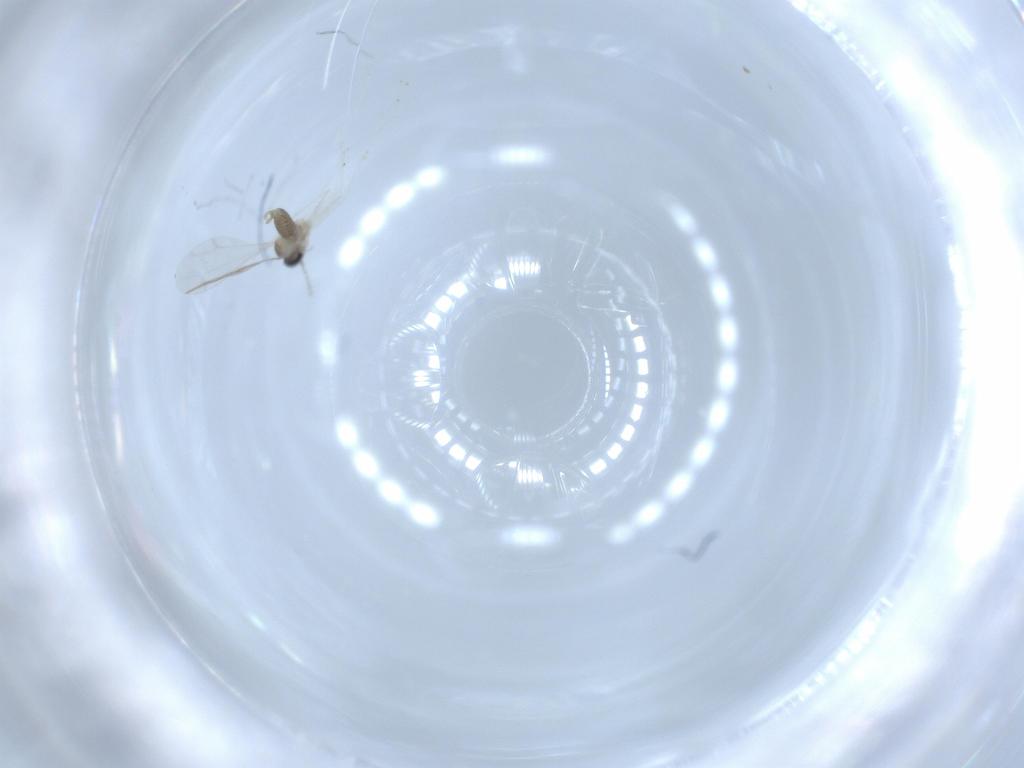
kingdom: Animalia
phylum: Arthropoda
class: Insecta
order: Diptera
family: Cecidomyiidae
